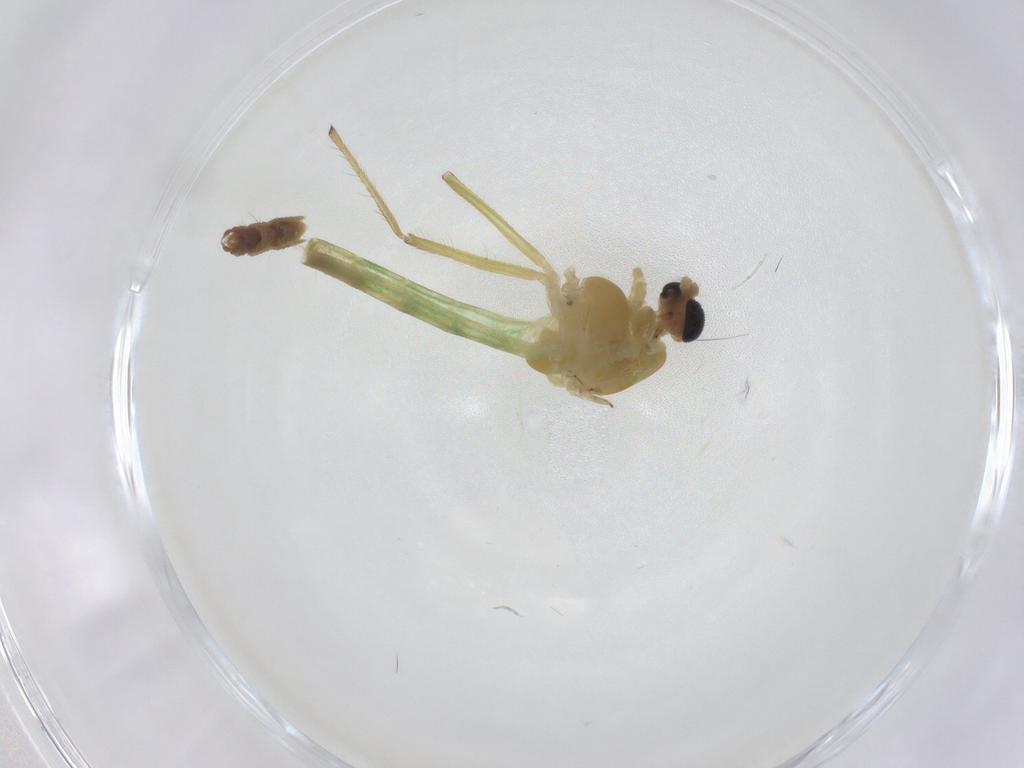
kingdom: Animalia
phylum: Arthropoda
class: Insecta
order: Diptera
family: Chironomidae
